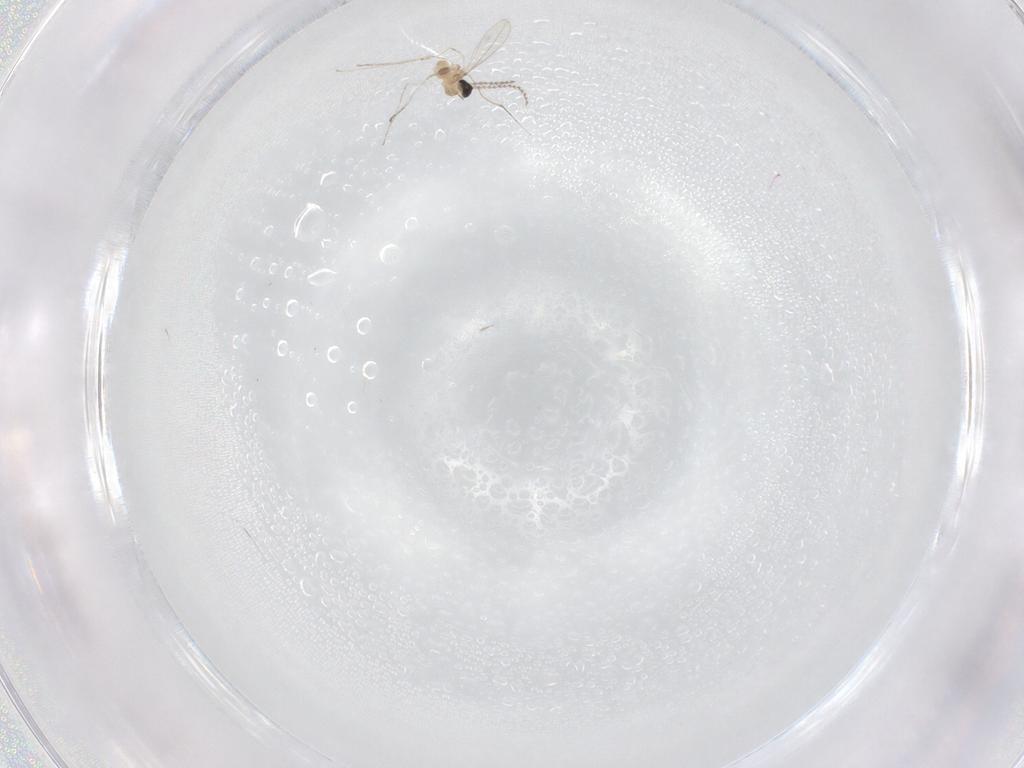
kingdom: Animalia
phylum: Arthropoda
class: Insecta
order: Diptera
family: Cecidomyiidae
